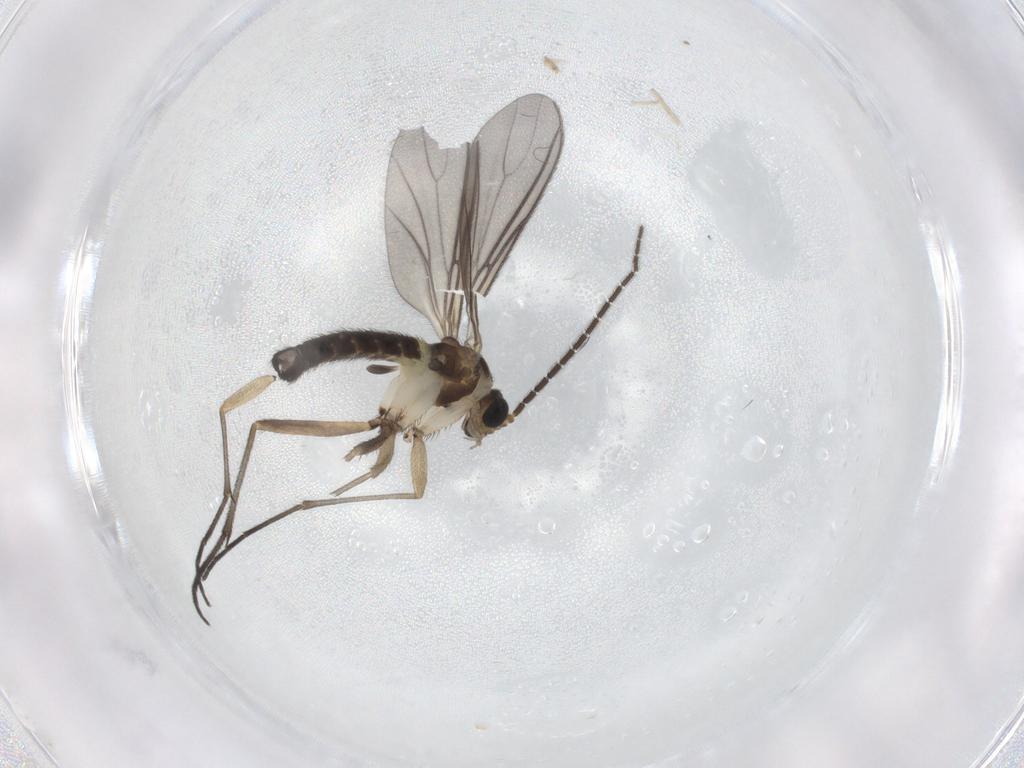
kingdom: Animalia
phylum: Arthropoda
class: Insecta
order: Diptera
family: Sciaridae
